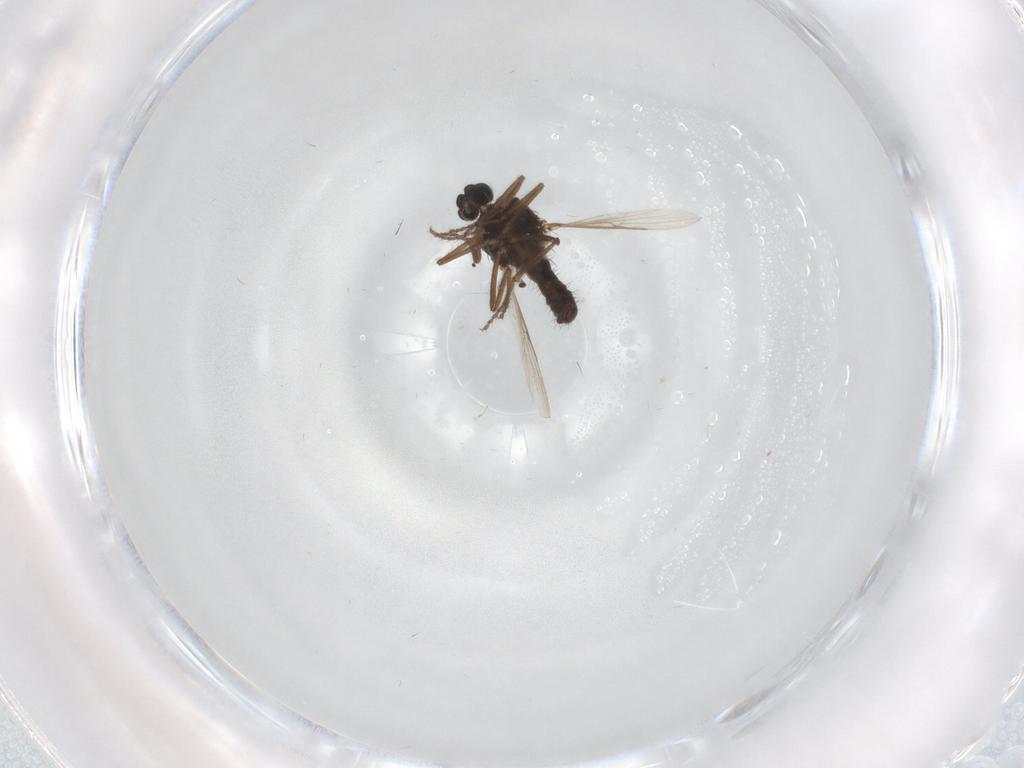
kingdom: Animalia
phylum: Arthropoda
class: Insecta
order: Diptera
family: Ceratopogonidae
